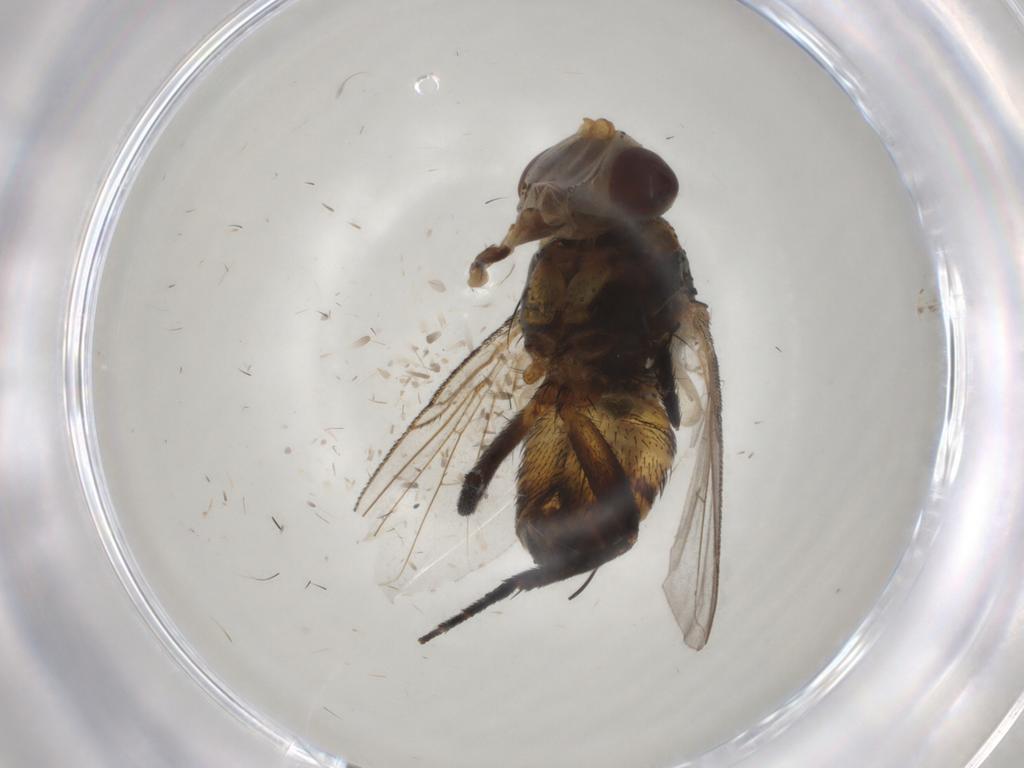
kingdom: Animalia
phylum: Arthropoda
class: Insecta
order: Diptera
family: Glossinidae
